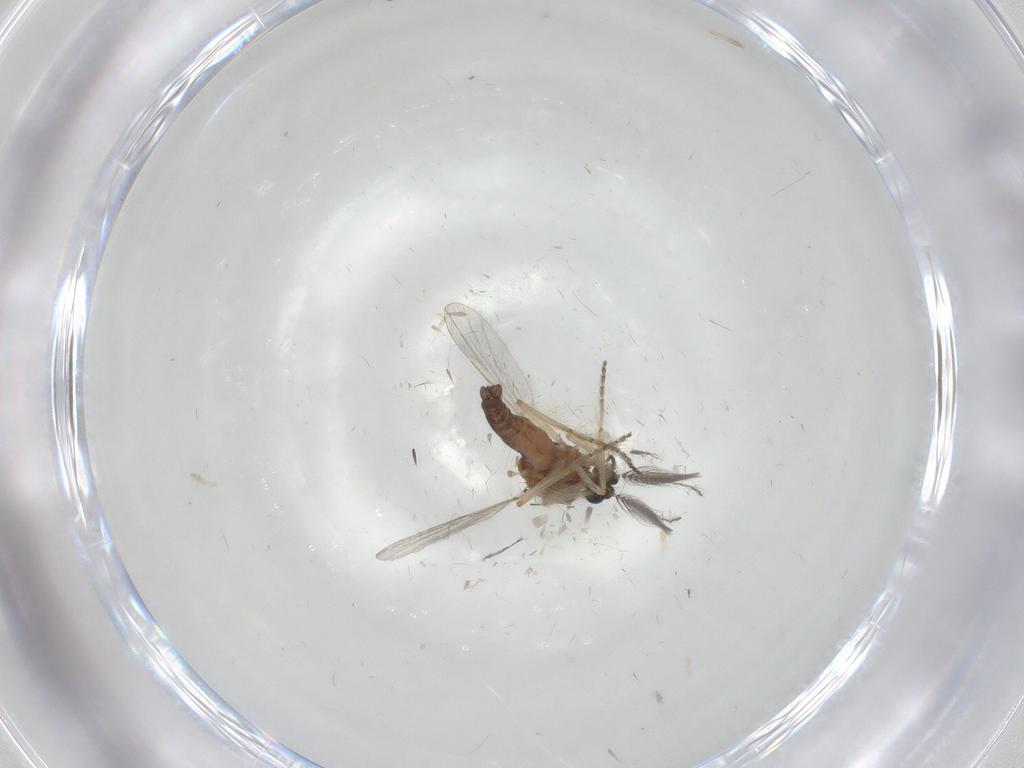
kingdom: Animalia
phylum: Arthropoda
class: Insecta
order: Diptera
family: Ceratopogonidae
